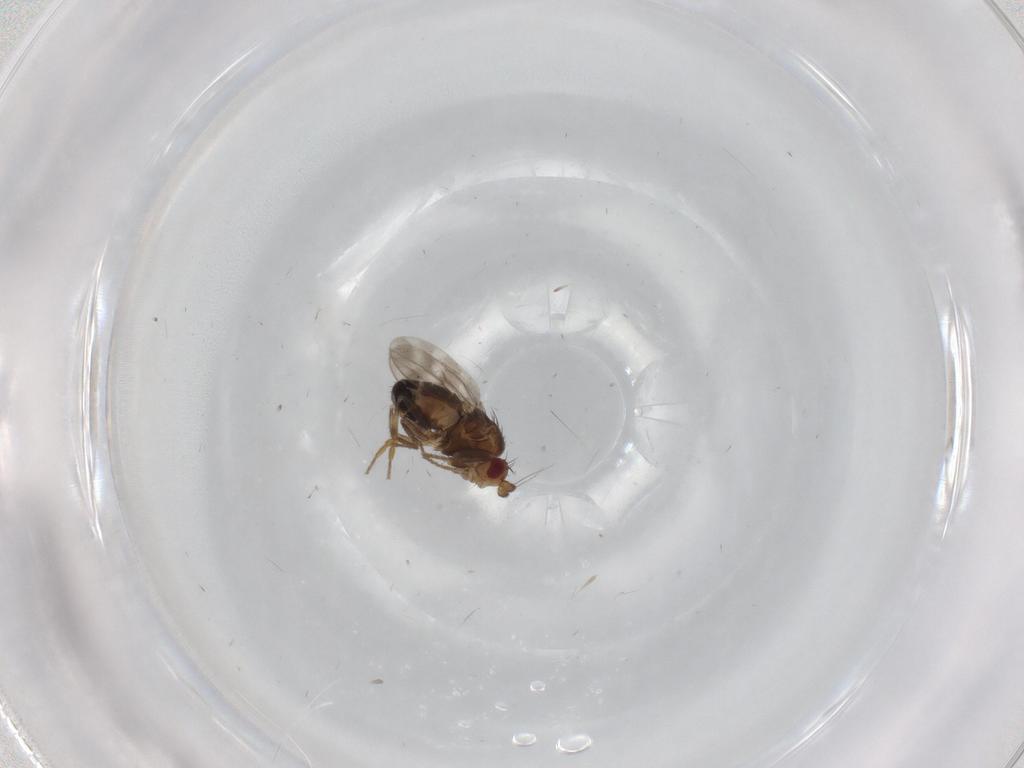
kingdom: Animalia
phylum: Arthropoda
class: Insecta
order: Diptera
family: Sphaeroceridae
